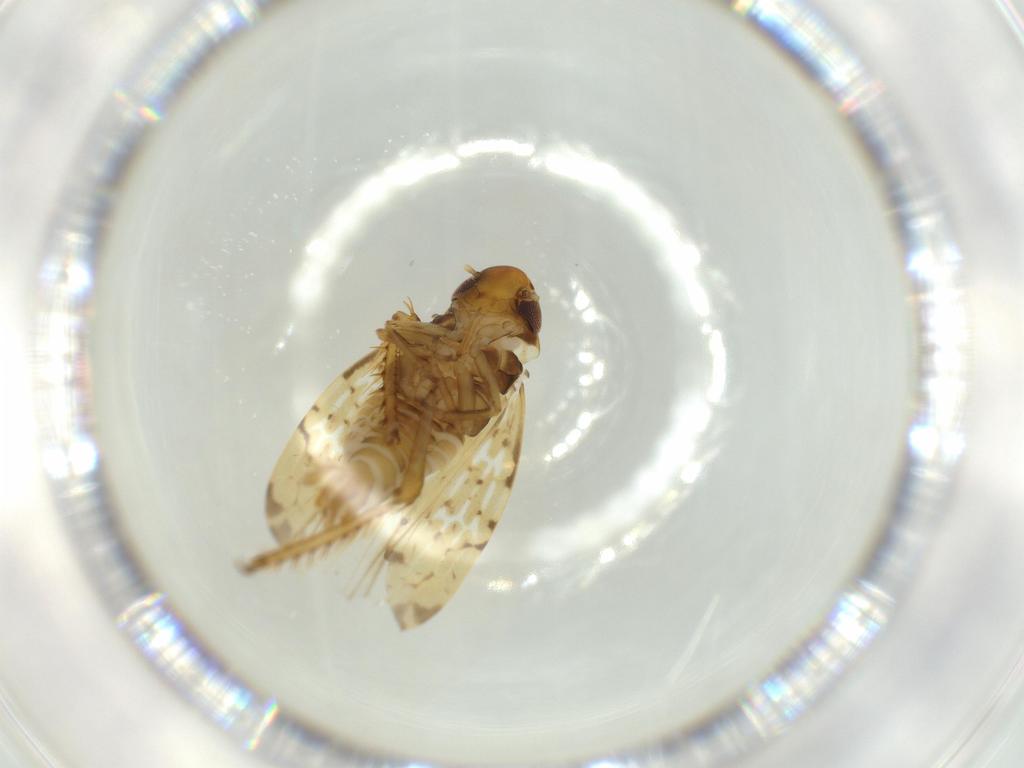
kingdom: Animalia
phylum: Arthropoda
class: Insecta
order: Hemiptera
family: Cicadellidae
